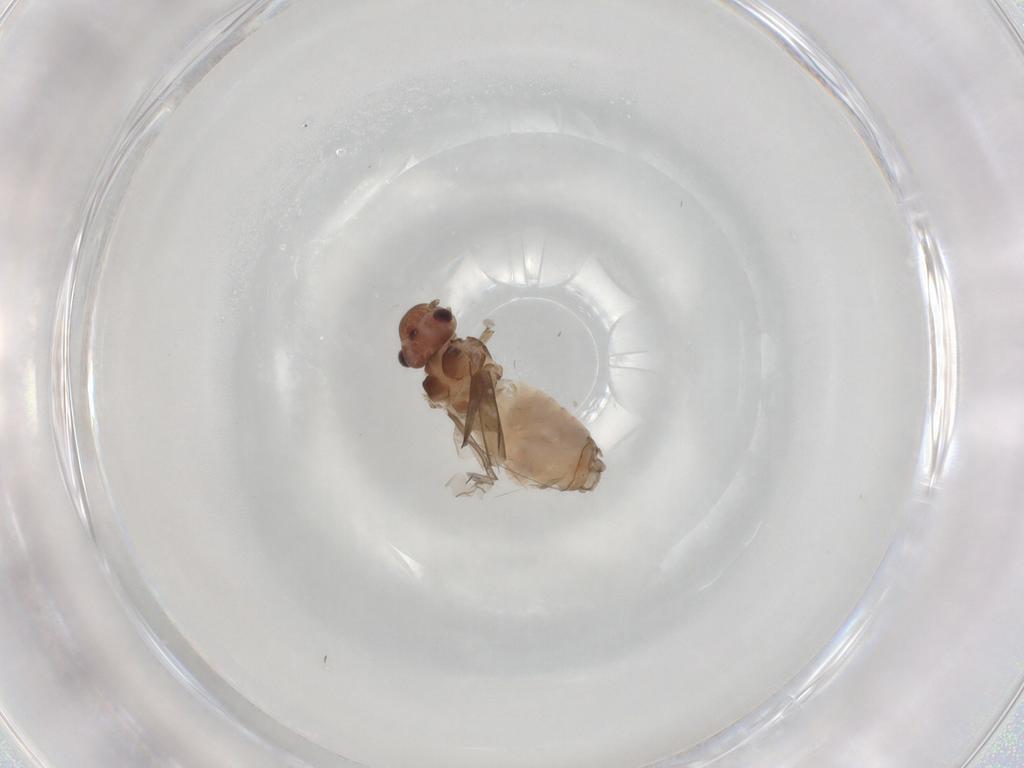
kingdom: Animalia
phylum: Arthropoda
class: Insecta
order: Psocodea
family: Peripsocidae
